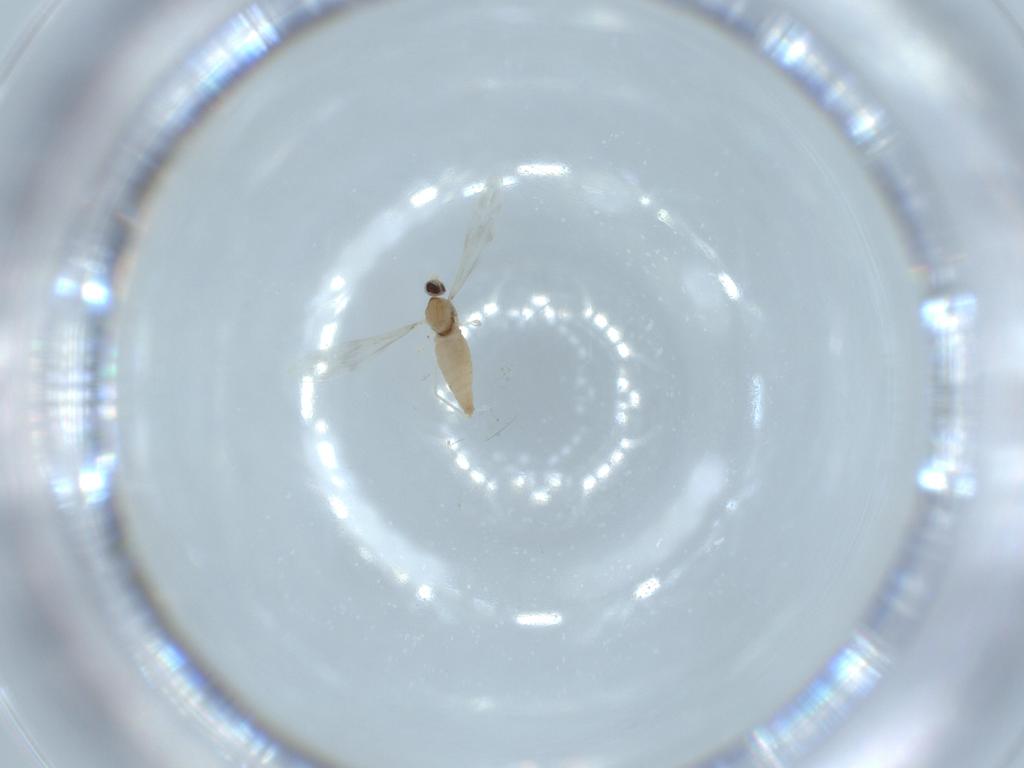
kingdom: Animalia
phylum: Arthropoda
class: Insecta
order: Diptera
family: Cecidomyiidae
